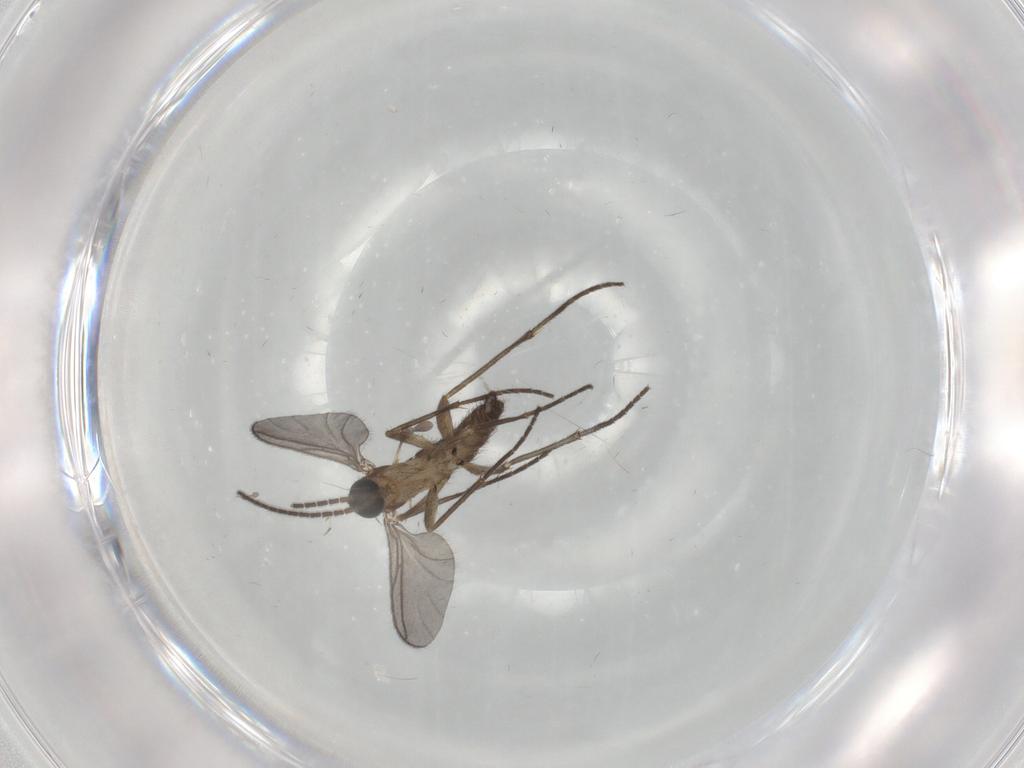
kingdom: Animalia
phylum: Arthropoda
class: Insecta
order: Diptera
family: Sciaridae
